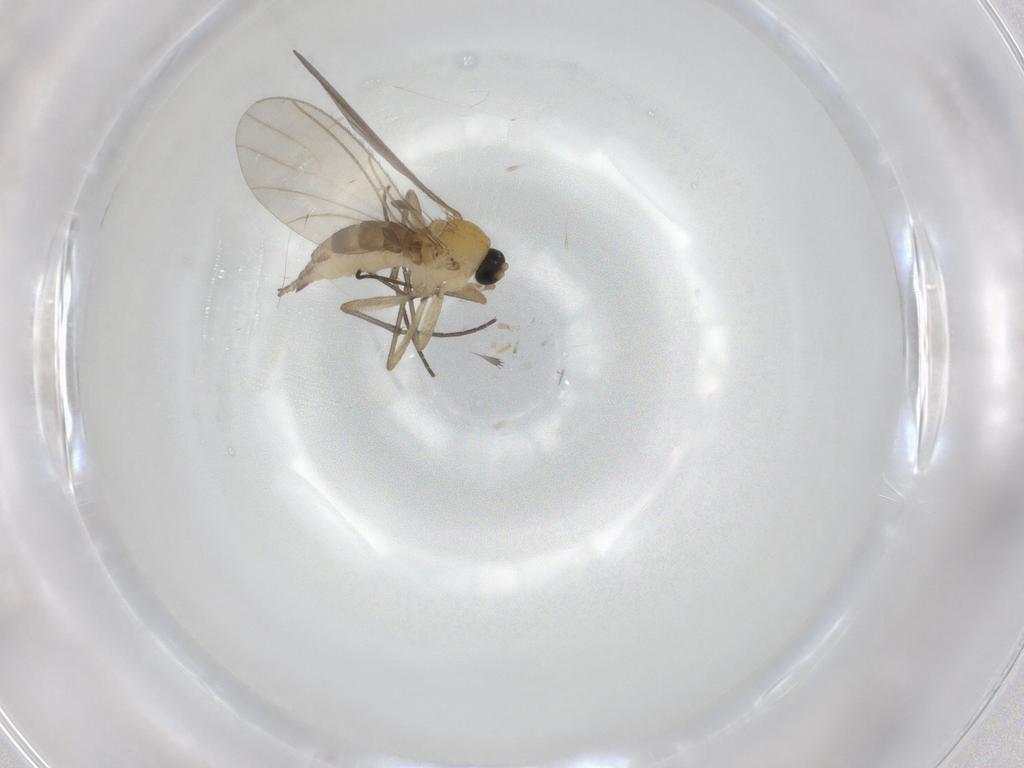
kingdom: Animalia
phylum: Arthropoda
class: Insecta
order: Diptera
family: Sciaridae
